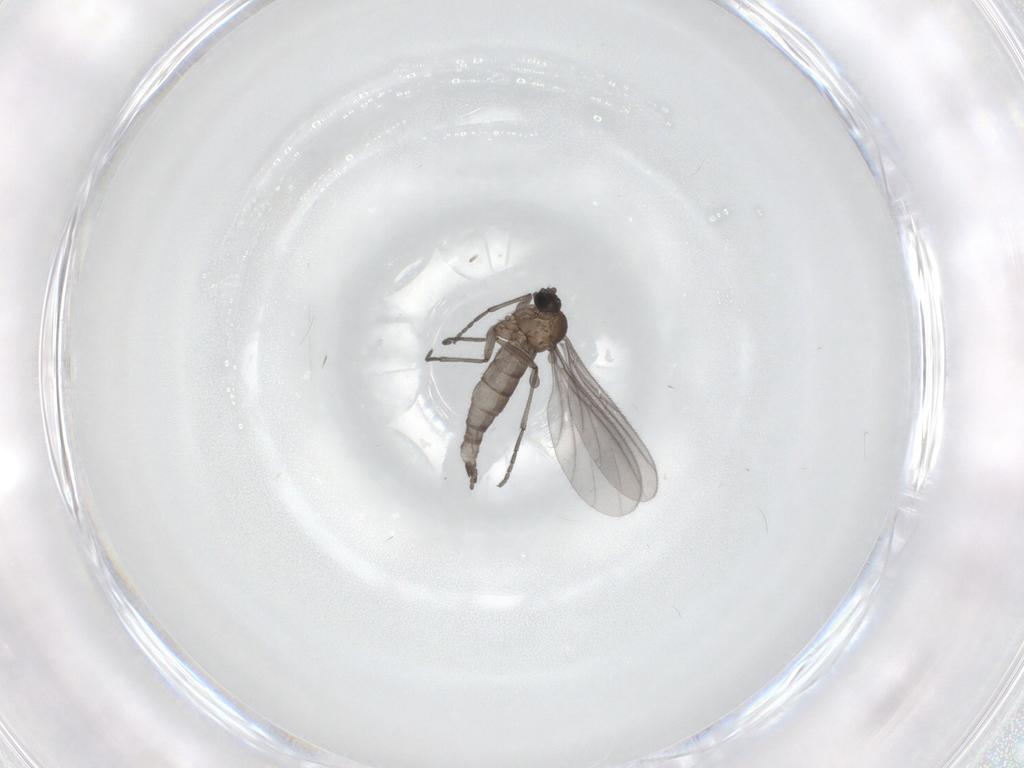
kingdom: Animalia
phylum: Arthropoda
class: Insecta
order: Diptera
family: Sciaridae
